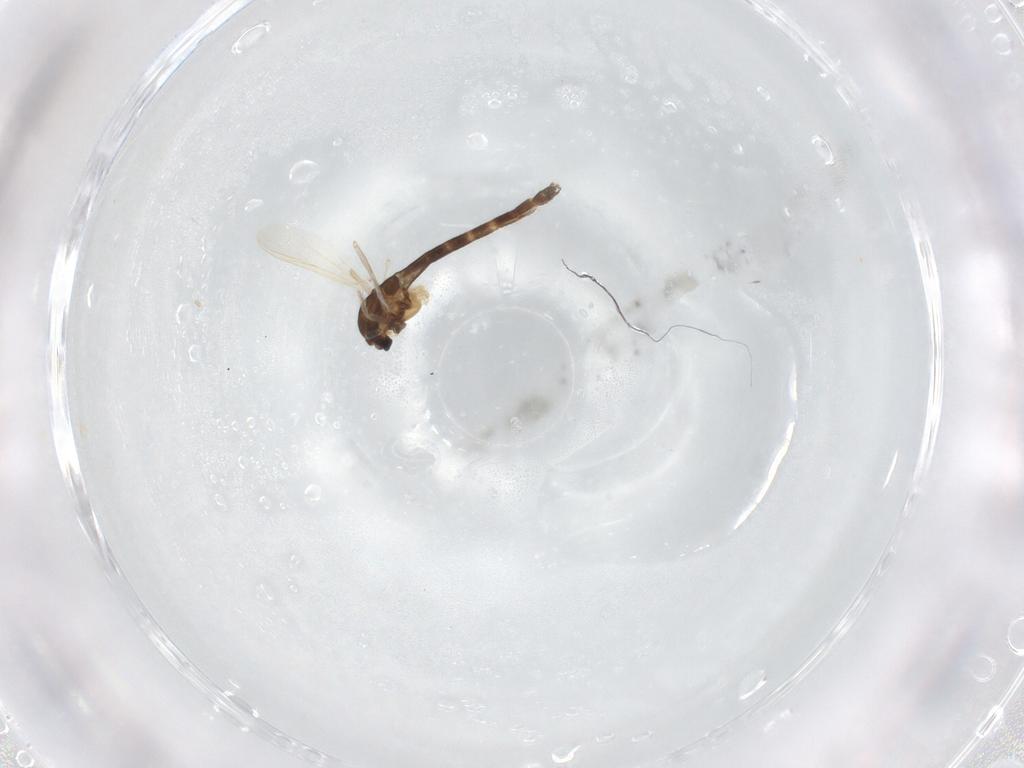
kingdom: Animalia
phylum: Arthropoda
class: Insecta
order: Diptera
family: Chironomidae
